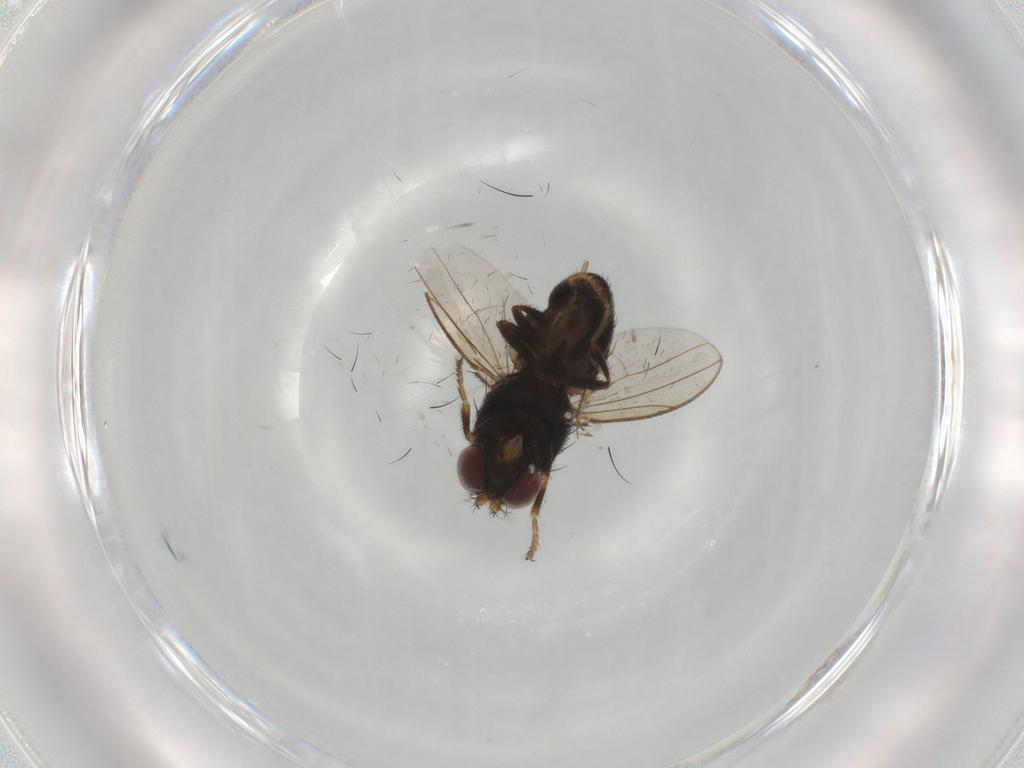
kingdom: Animalia
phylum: Arthropoda
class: Insecta
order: Diptera
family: Ephydridae
